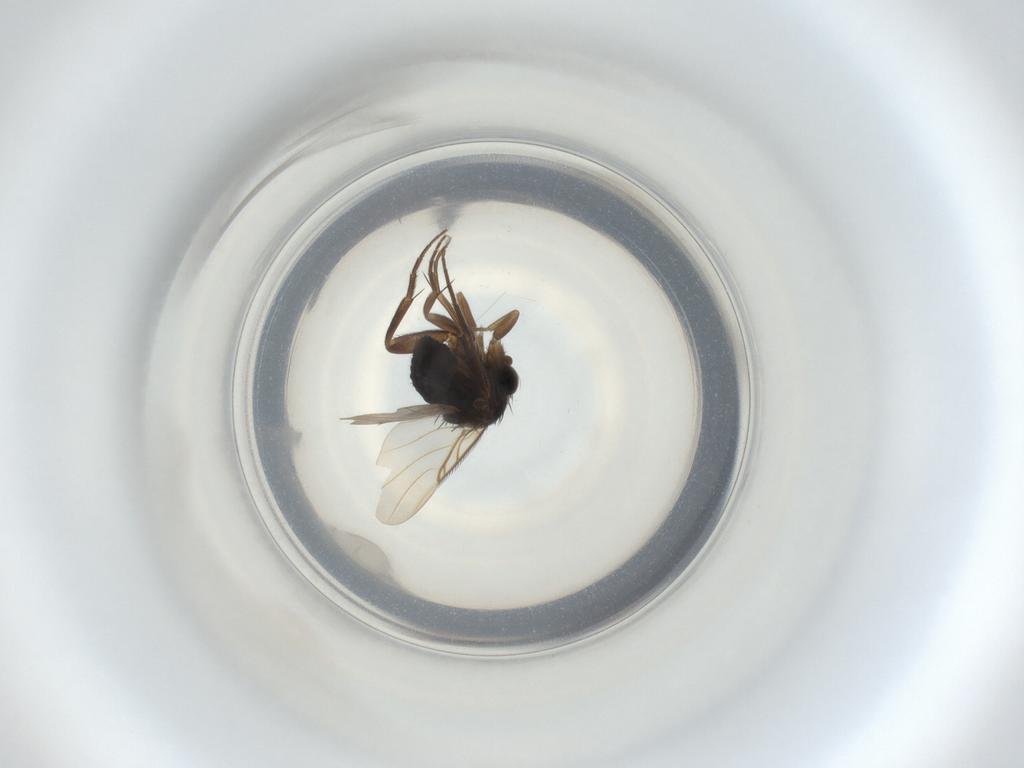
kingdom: Animalia
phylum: Arthropoda
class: Insecta
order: Diptera
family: Phoridae
